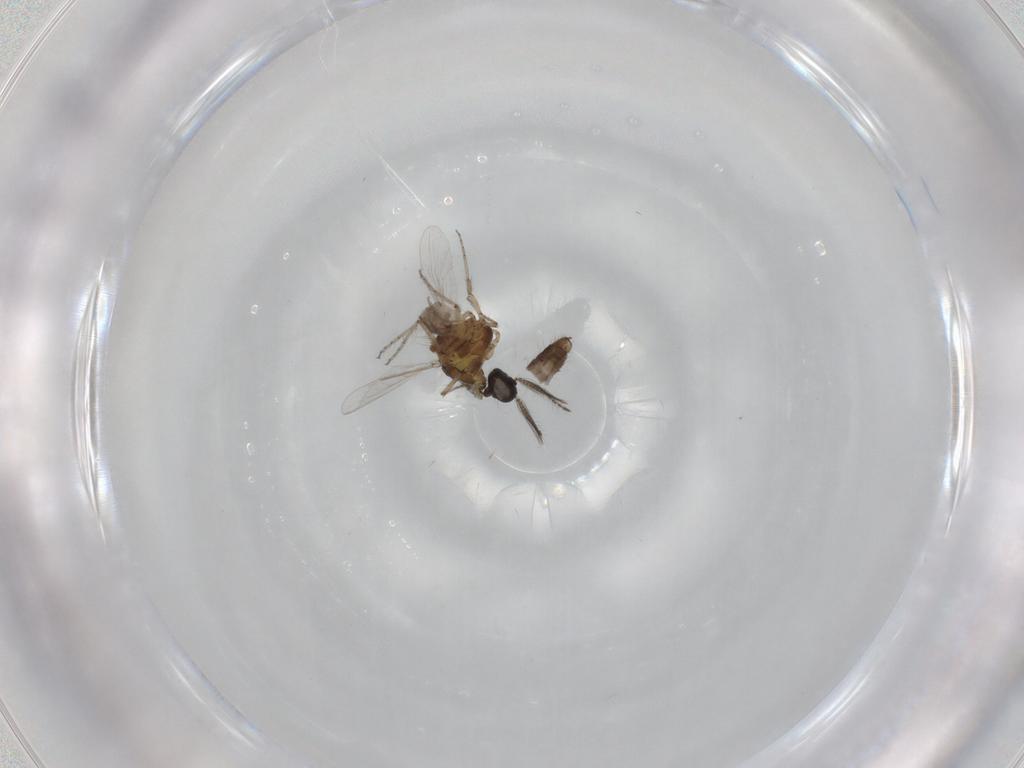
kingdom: Animalia
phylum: Arthropoda
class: Insecta
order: Diptera
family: Ceratopogonidae
